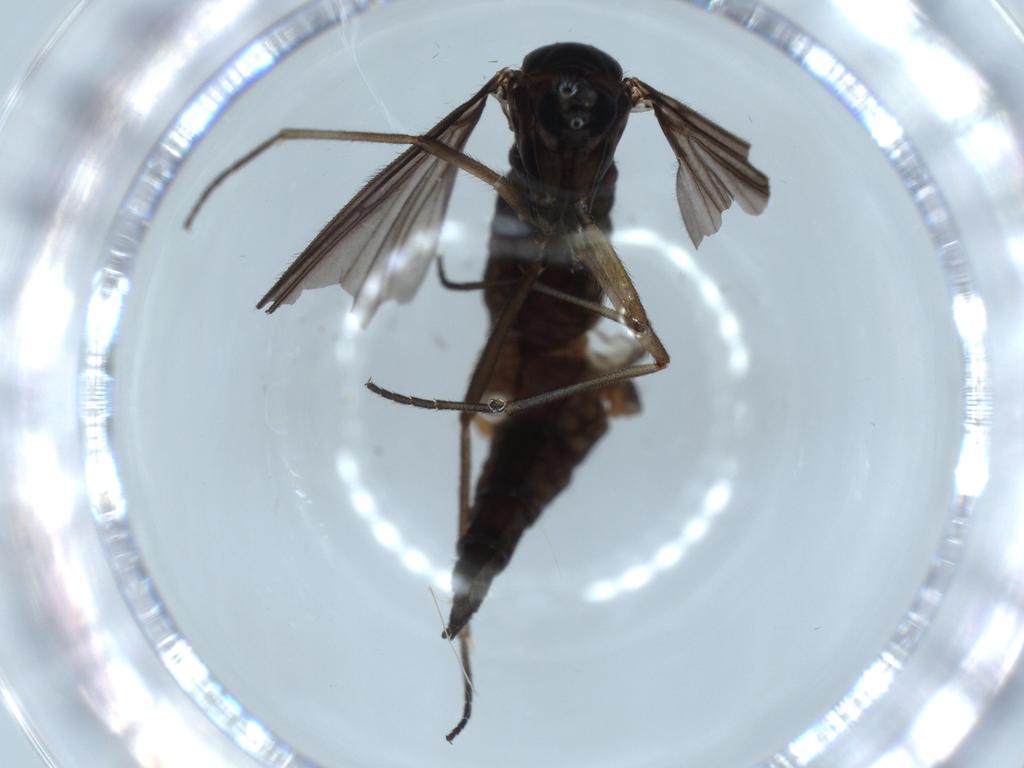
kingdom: Animalia
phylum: Arthropoda
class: Insecta
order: Diptera
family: Sciaridae
